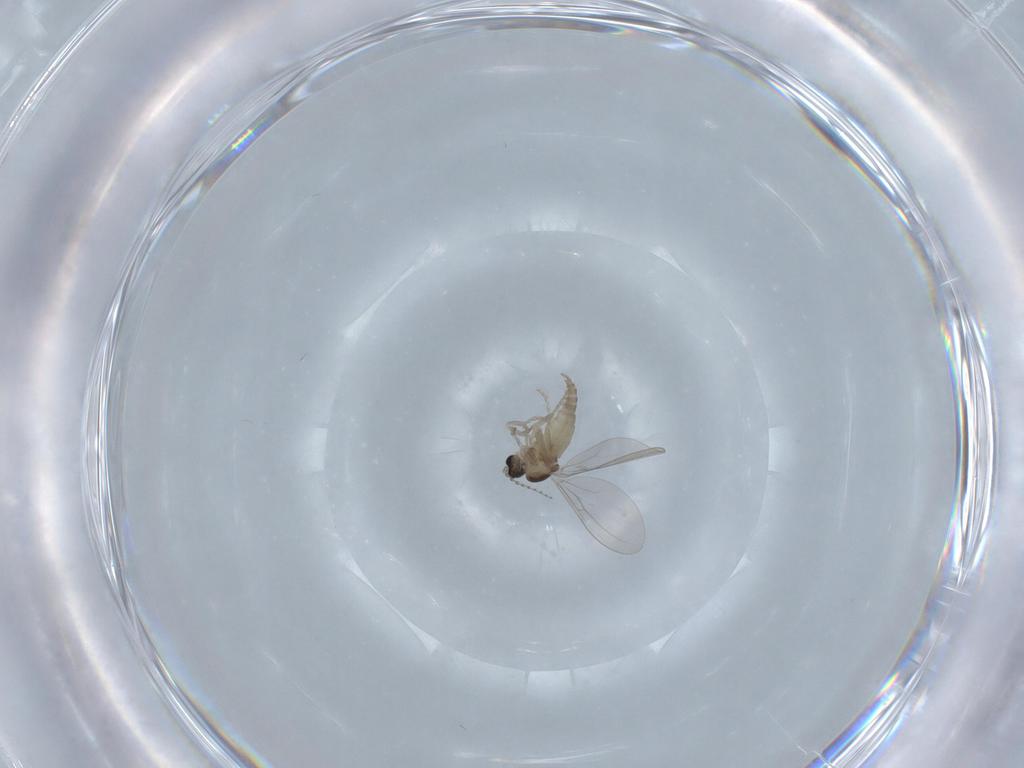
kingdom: Animalia
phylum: Arthropoda
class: Insecta
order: Diptera
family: Cecidomyiidae
